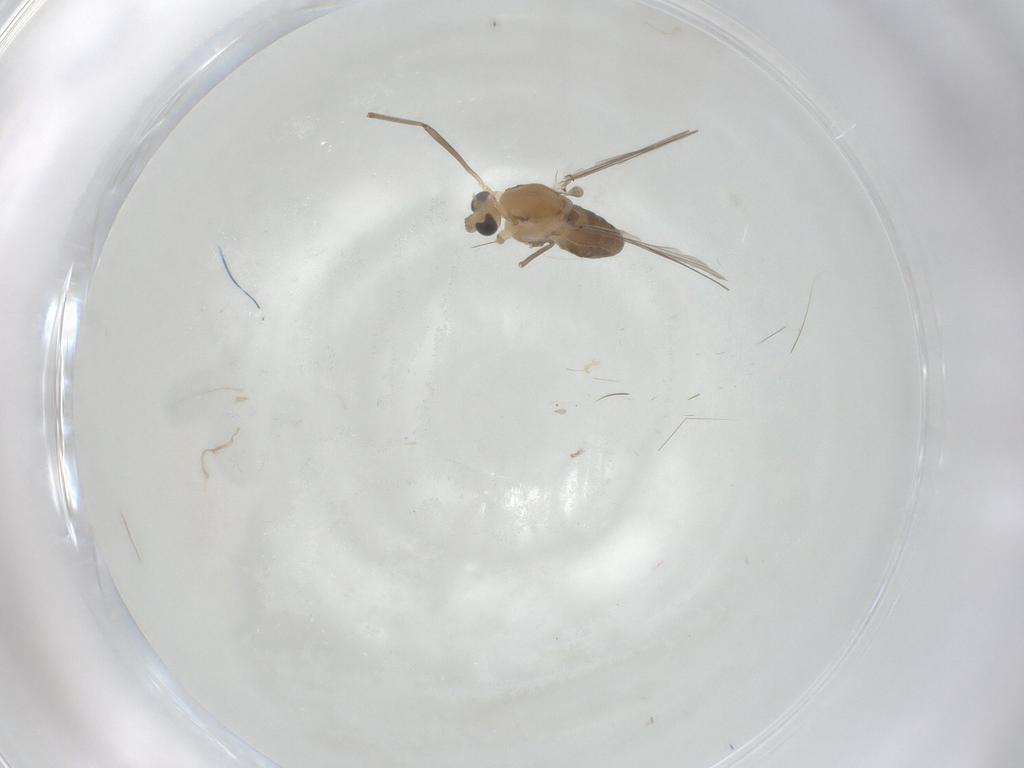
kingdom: Animalia
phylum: Arthropoda
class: Insecta
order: Diptera
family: Chironomidae
